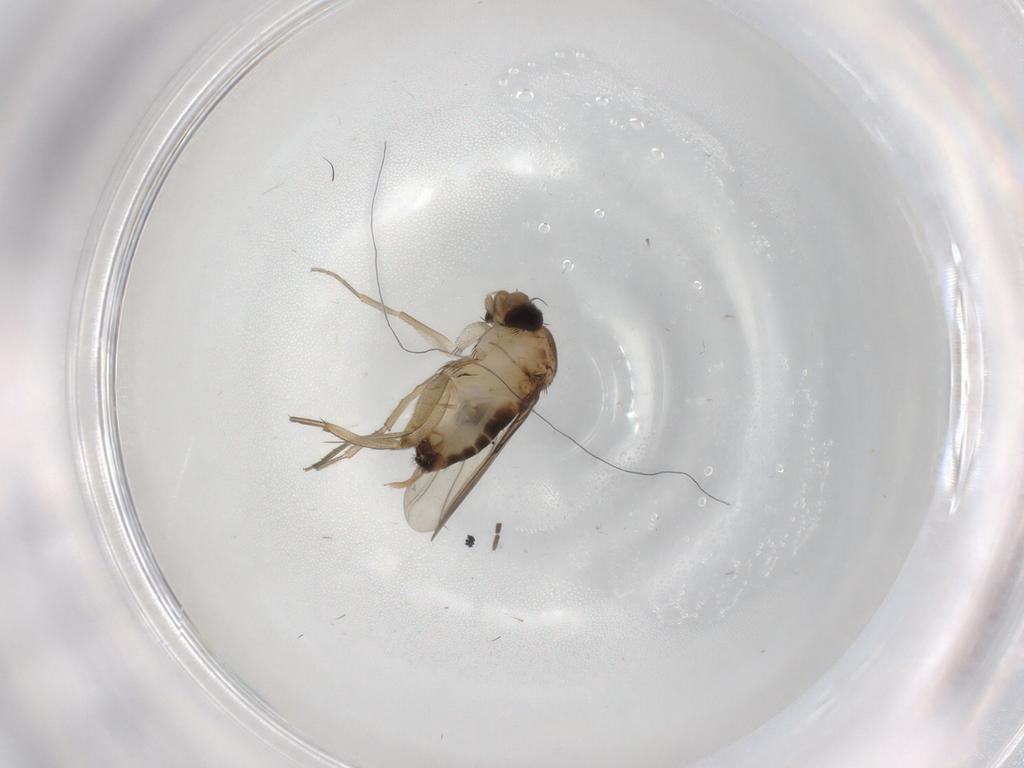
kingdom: Animalia
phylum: Arthropoda
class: Insecta
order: Diptera
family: Phoridae
